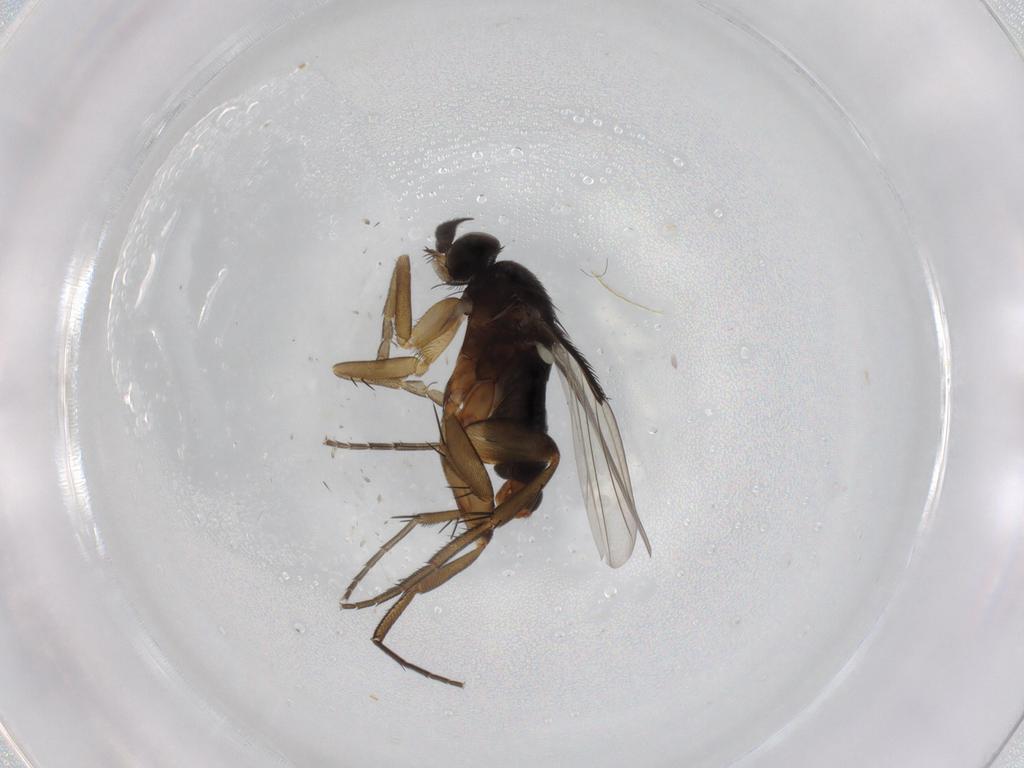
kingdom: Animalia
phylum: Arthropoda
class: Insecta
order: Diptera
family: Phoridae
